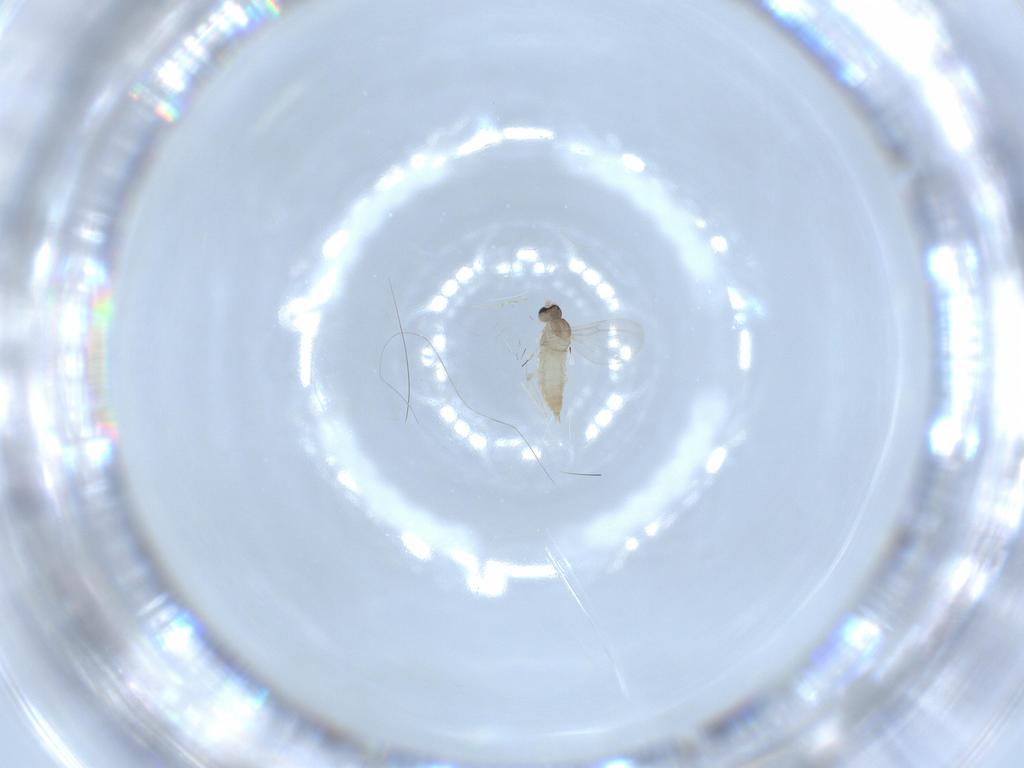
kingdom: Animalia
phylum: Arthropoda
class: Insecta
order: Diptera
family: Cecidomyiidae
